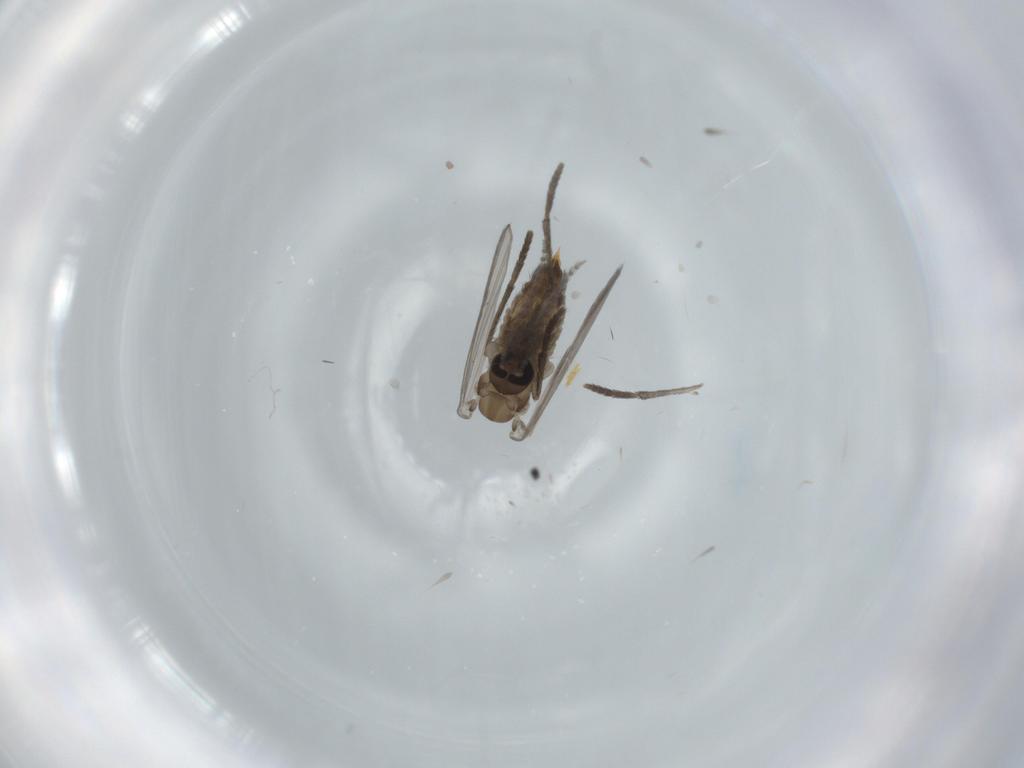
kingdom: Animalia
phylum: Arthropoda
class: Insecta
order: Diptera
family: Psychodidae
